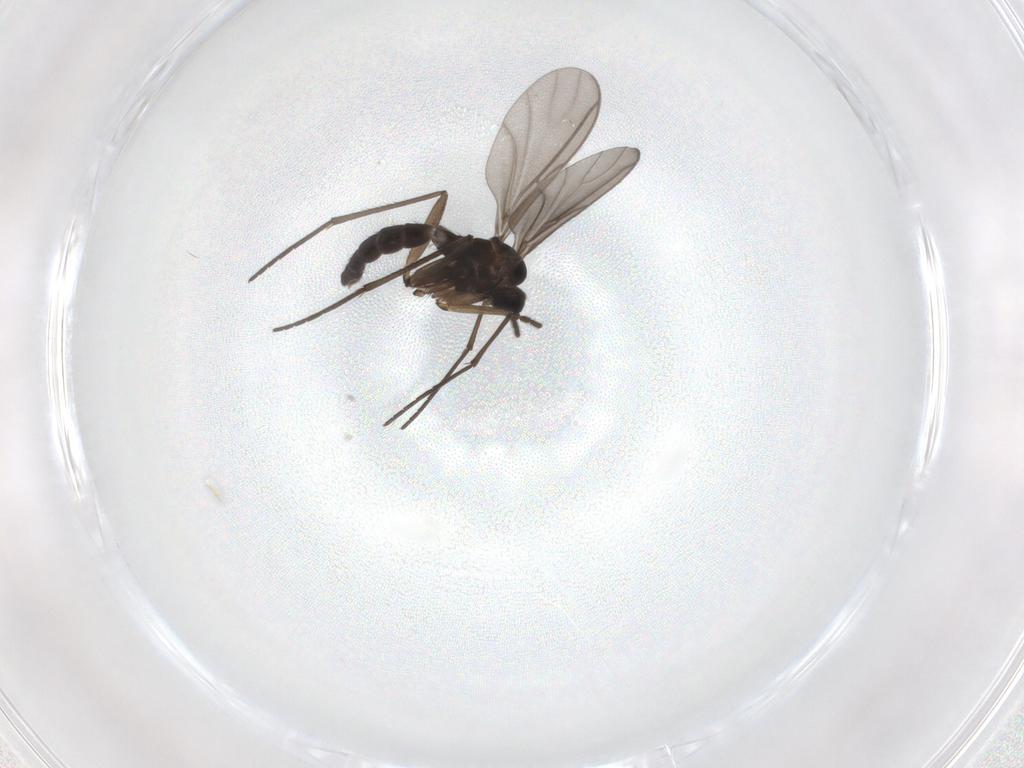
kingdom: Animalia
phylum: Arthropoda
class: Insecta
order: Diptera
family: Sciaridae
